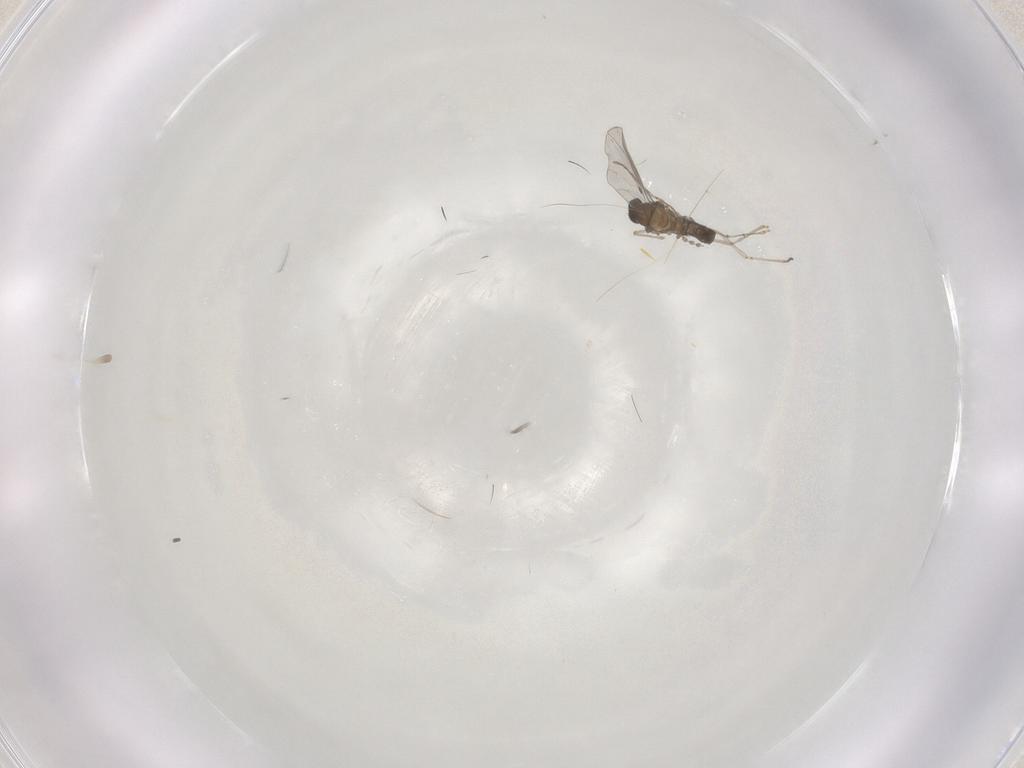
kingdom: Animalia
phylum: Arthropoda
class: Insecta
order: Diptera
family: Cecidomyiidae
